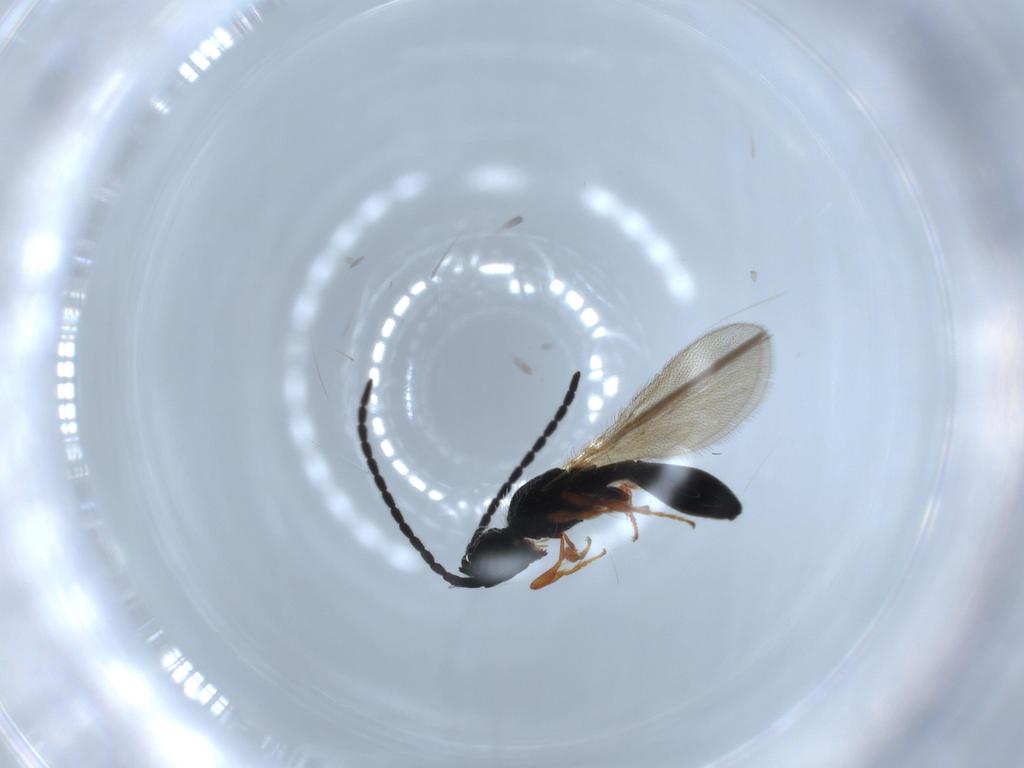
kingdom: Animalia
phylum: Arthropoda
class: Insecta
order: Hymenoptera
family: Diapriidae
